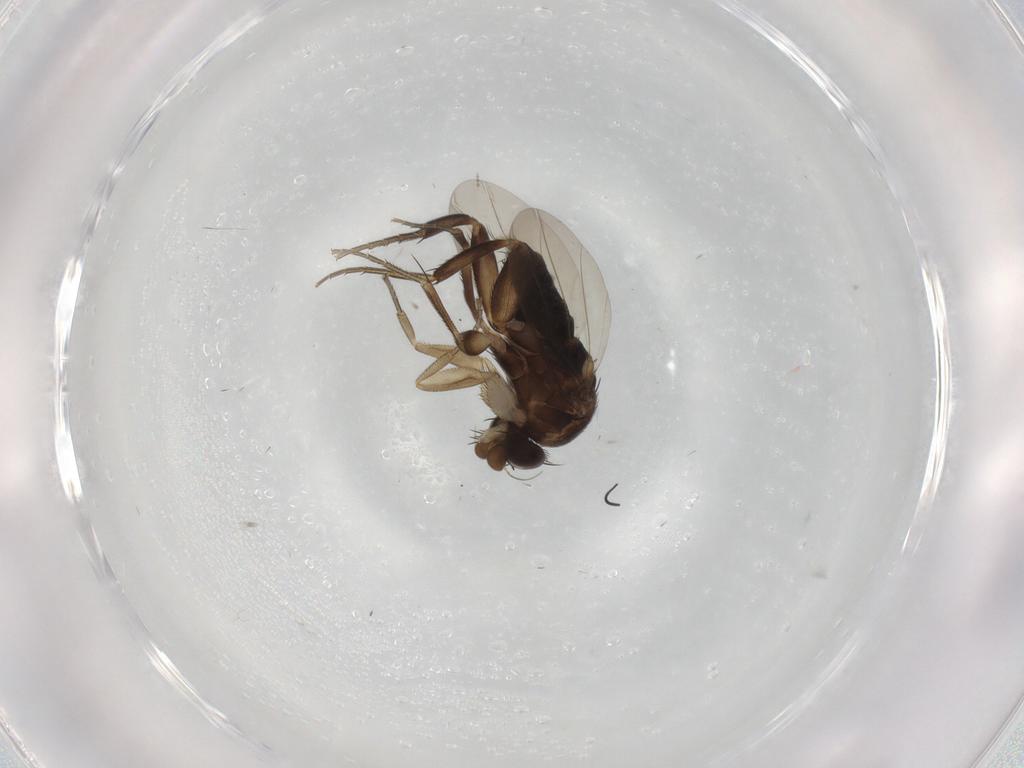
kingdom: Animalia
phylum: Arthropoda
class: Insecta
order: Diptera
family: Phoridae
